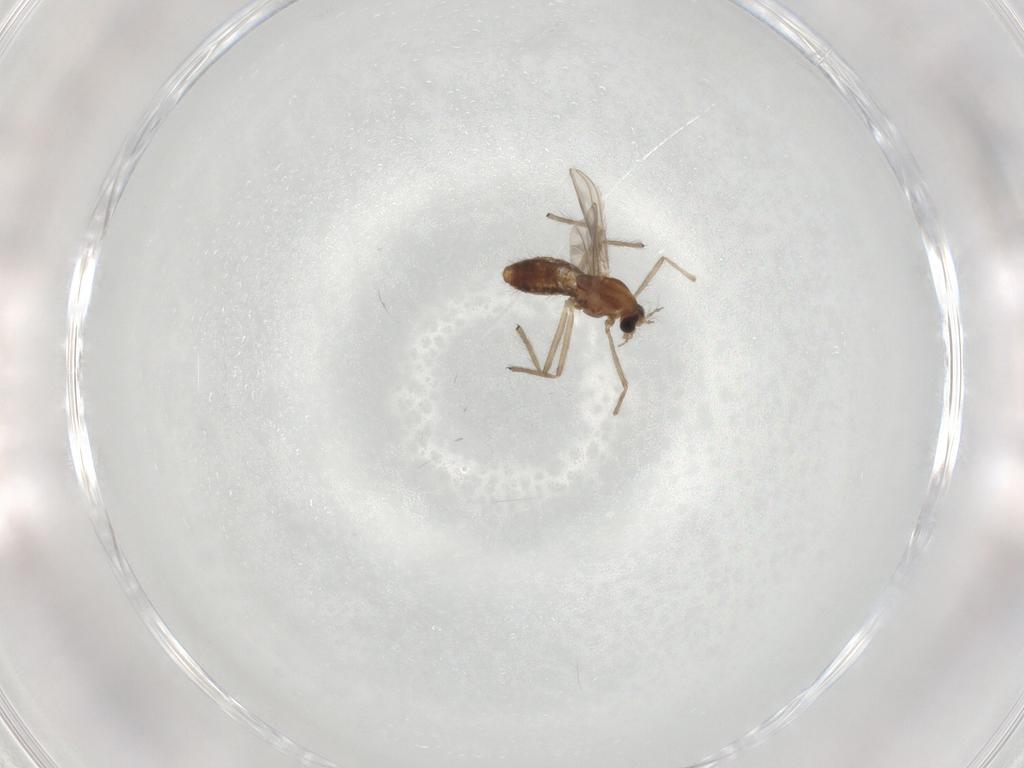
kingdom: Animalia
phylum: Arthropoda
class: Insecta
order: Diptera
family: Chironomidae
